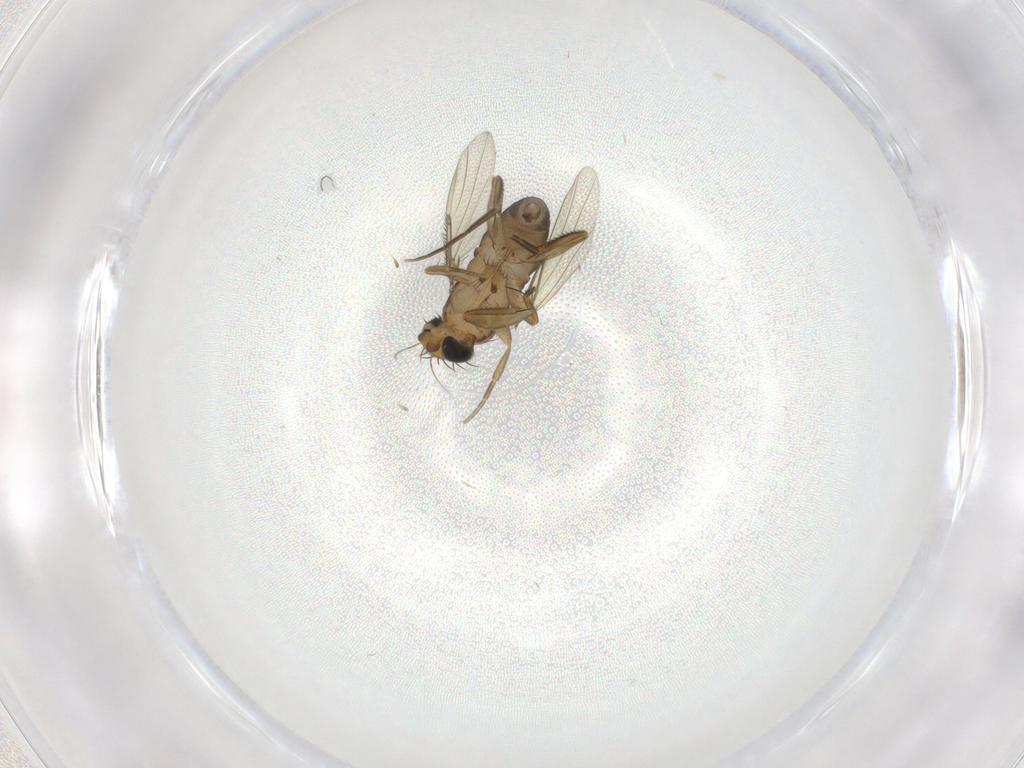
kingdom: Animalia
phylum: Arthropoda
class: Insecta
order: Diptera
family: Phoridae
